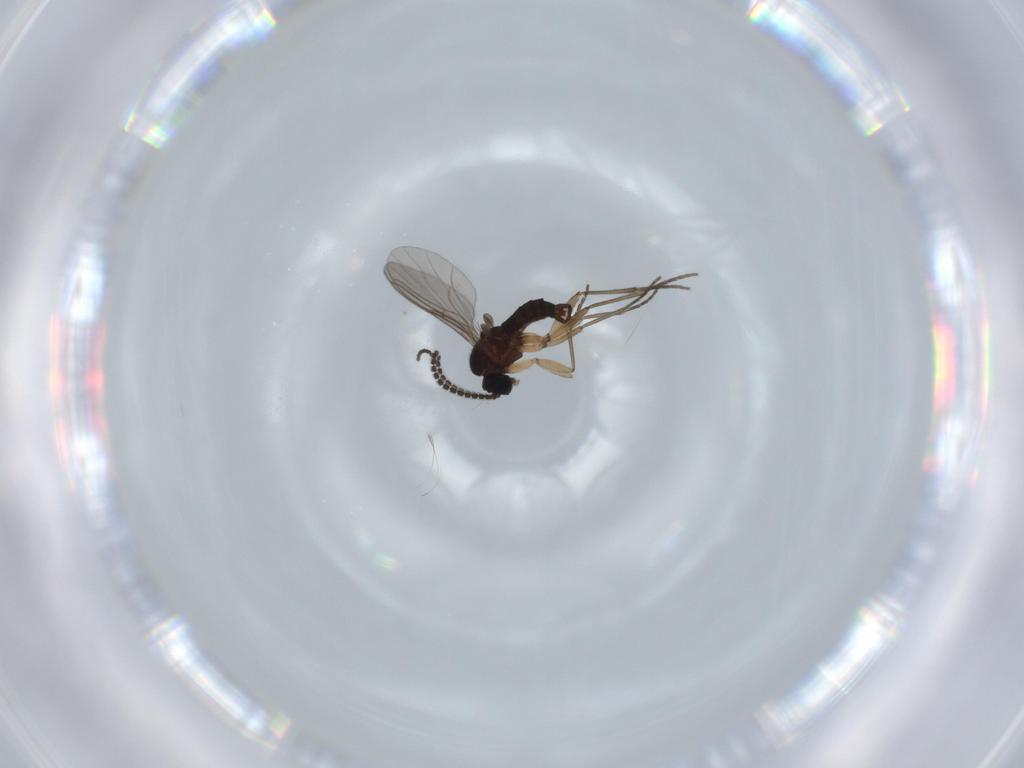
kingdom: Animalia
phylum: Arthropoda
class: Insecta
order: Diptera
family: Sciaridae
